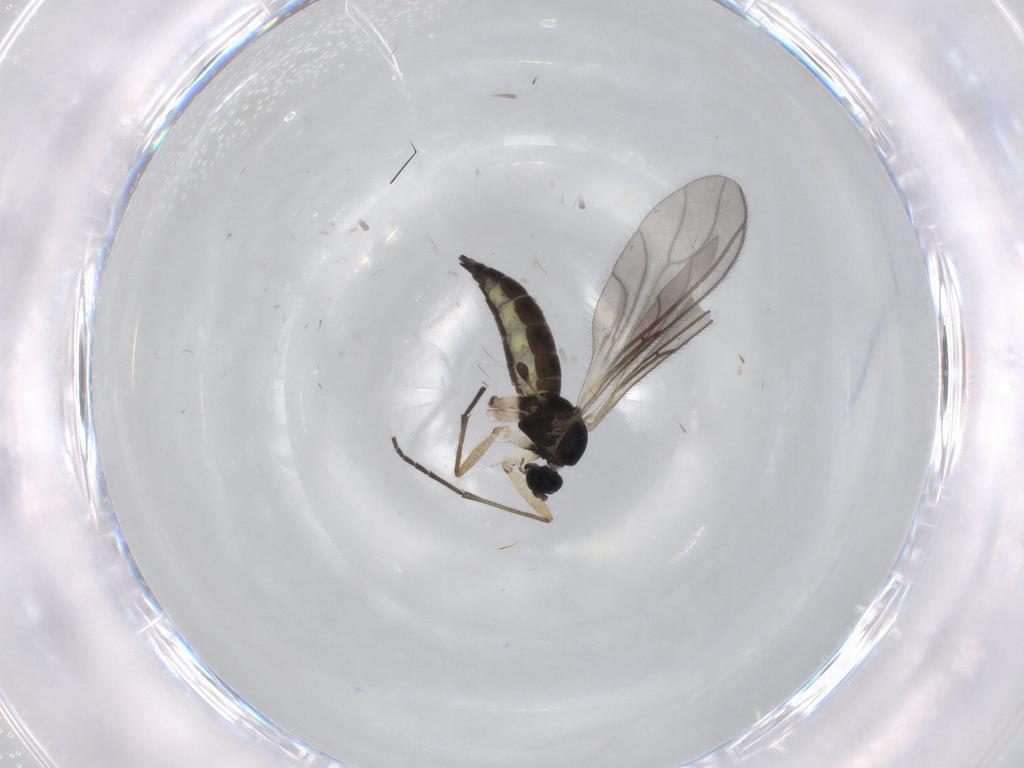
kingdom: Animalia
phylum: Arthropoda
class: Insecta
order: Diptera
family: Sciaridae
